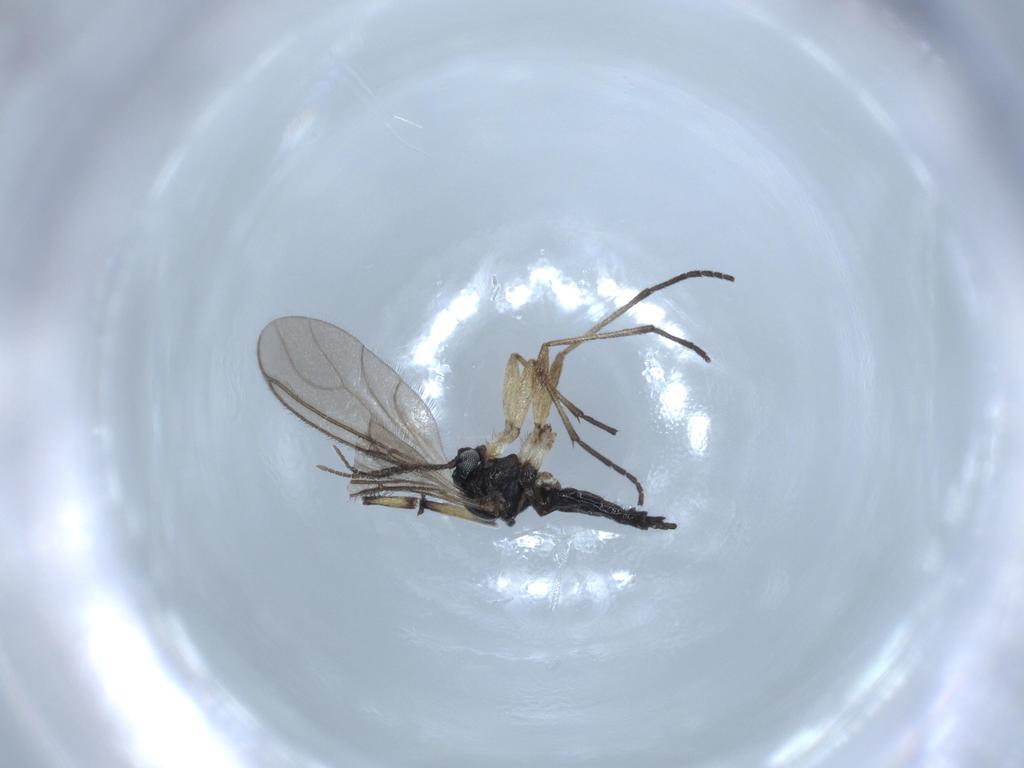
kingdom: Animalia
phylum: Arthropoda
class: Insecta
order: Diptera
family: Sciaridae
